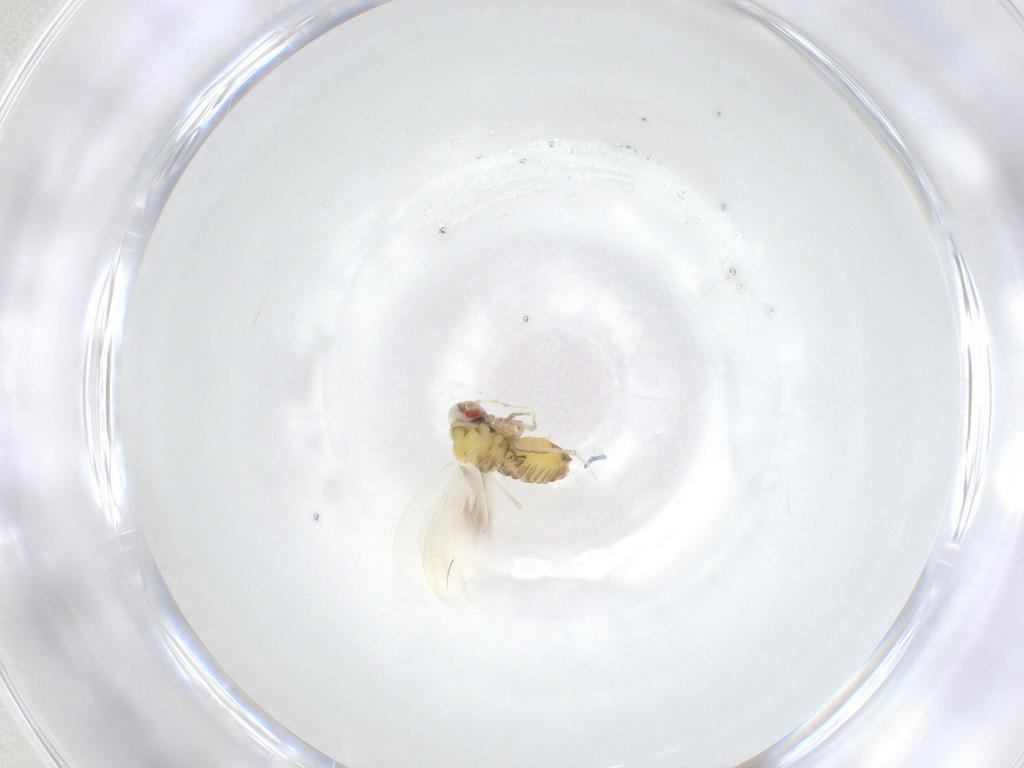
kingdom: Animalia
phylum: Arthropoda
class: Insecta
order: Hemiptera
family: Aleyrodidae
